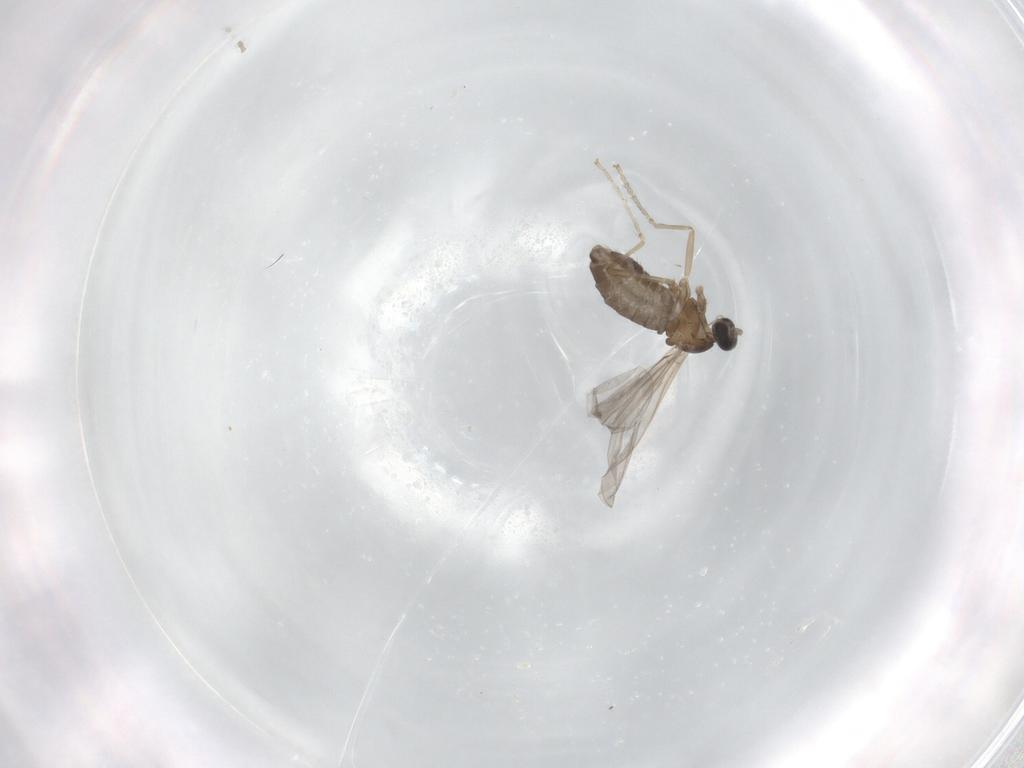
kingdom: Animalia
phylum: Arthropoda
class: Insecta
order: Diptera
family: Cecidomyiidae
